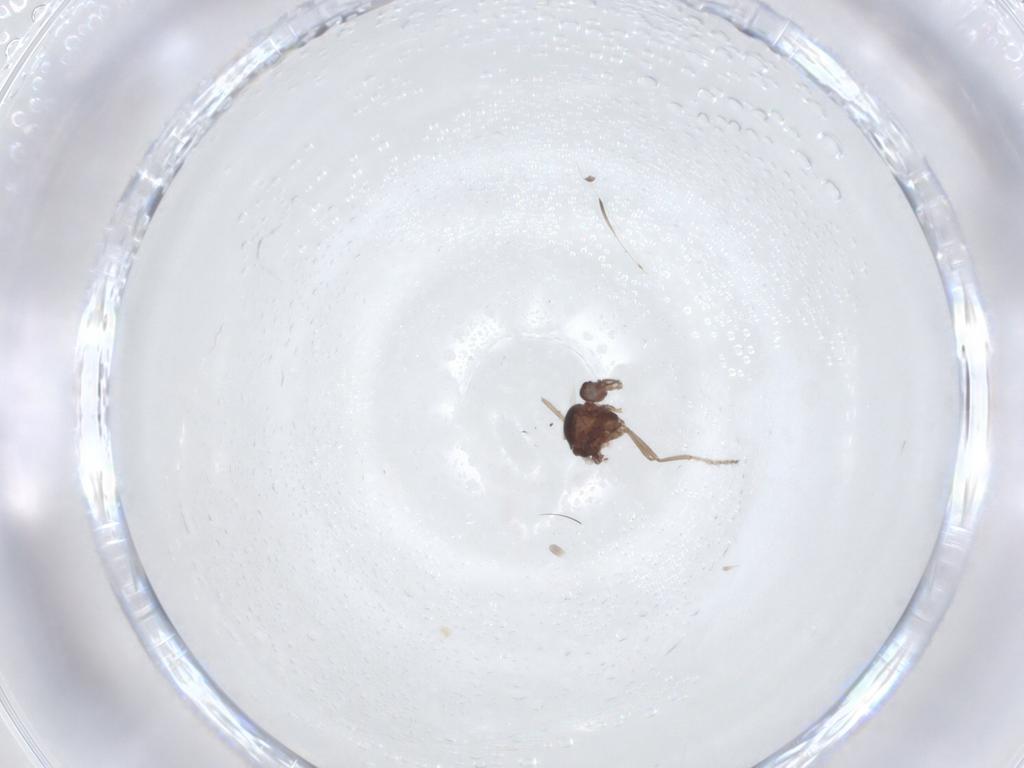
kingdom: Animalia
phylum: Arthropoda
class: Insecta
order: Diptera
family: Ceratopogonidae
